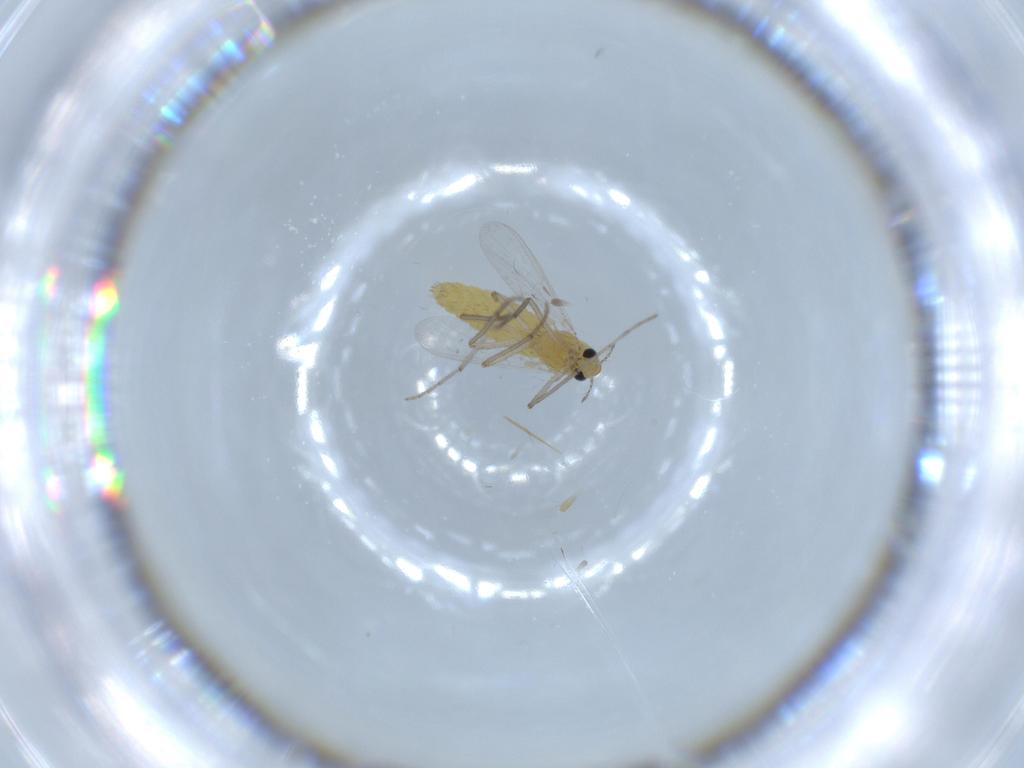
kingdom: Animalia
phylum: Arthropoda
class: Insecta
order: Diptera
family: Chironomidae
